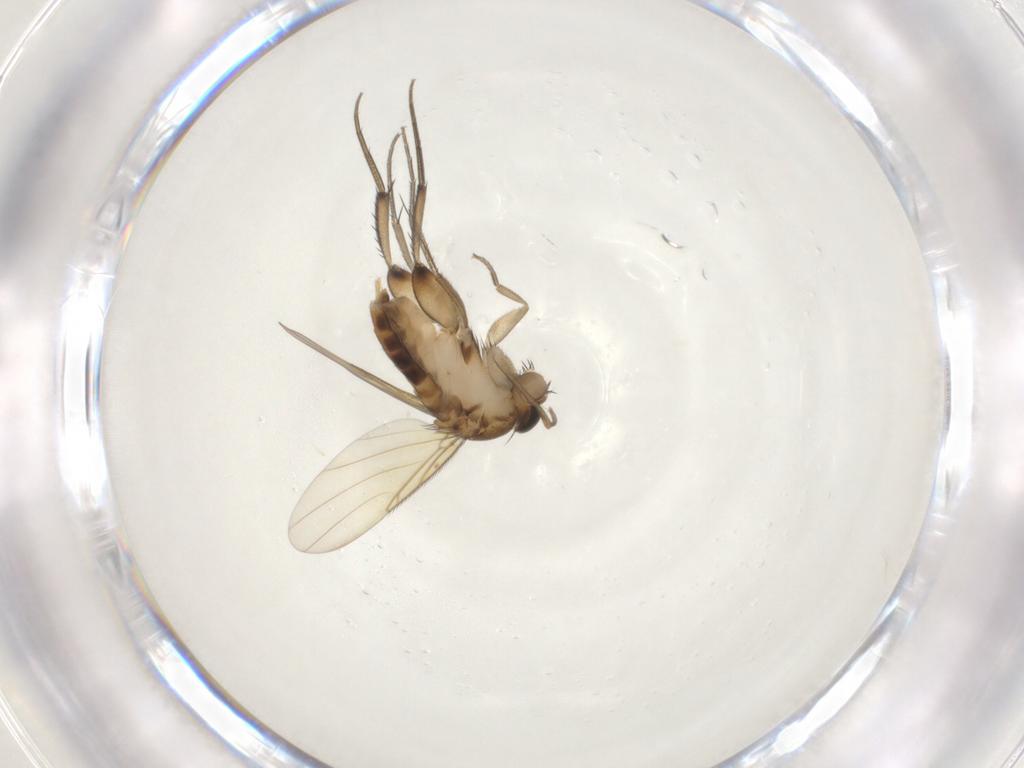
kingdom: Animalia
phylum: Arthropoda
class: Insecta
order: Diptera
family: Phoridae
